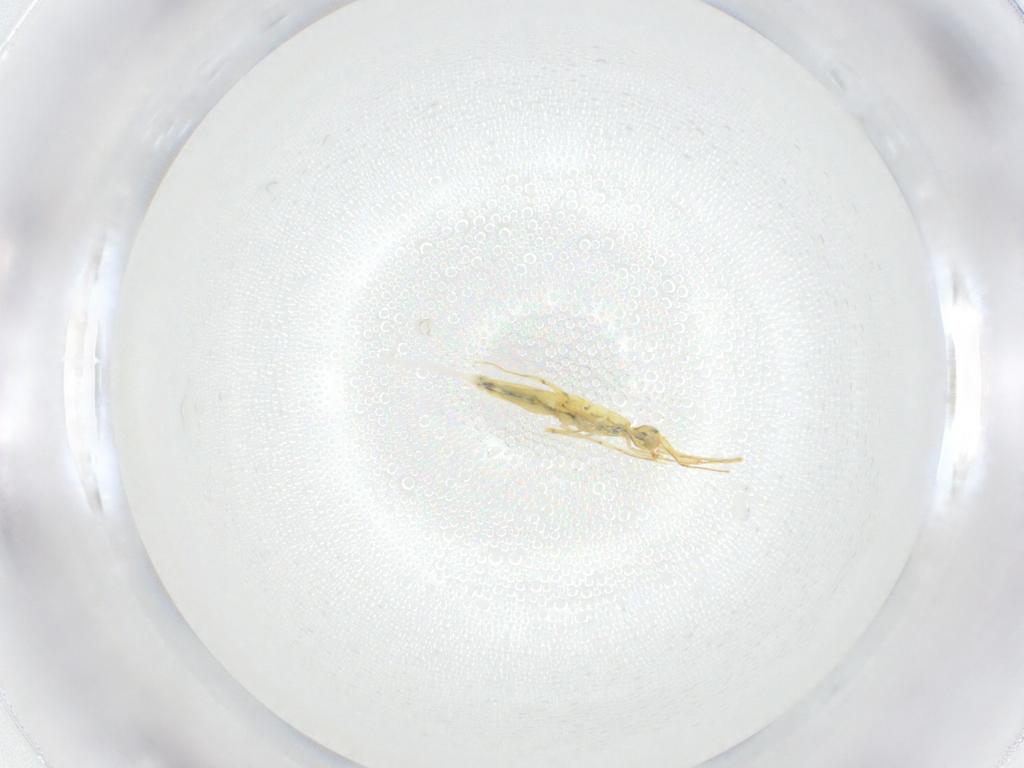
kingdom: Animalia
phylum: Arthropoda
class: Collembola
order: Entomobryomorpha
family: Entomobryidae
